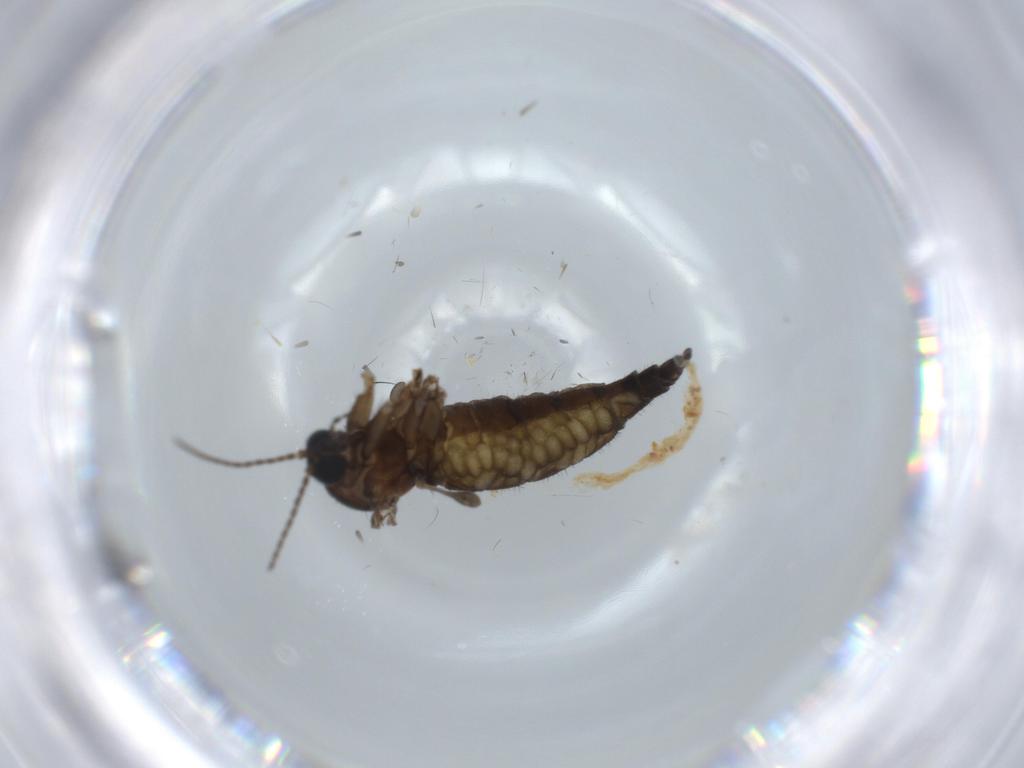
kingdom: Animalia
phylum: Arthropoda
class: Insecta
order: Diptera
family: Sciaridae
